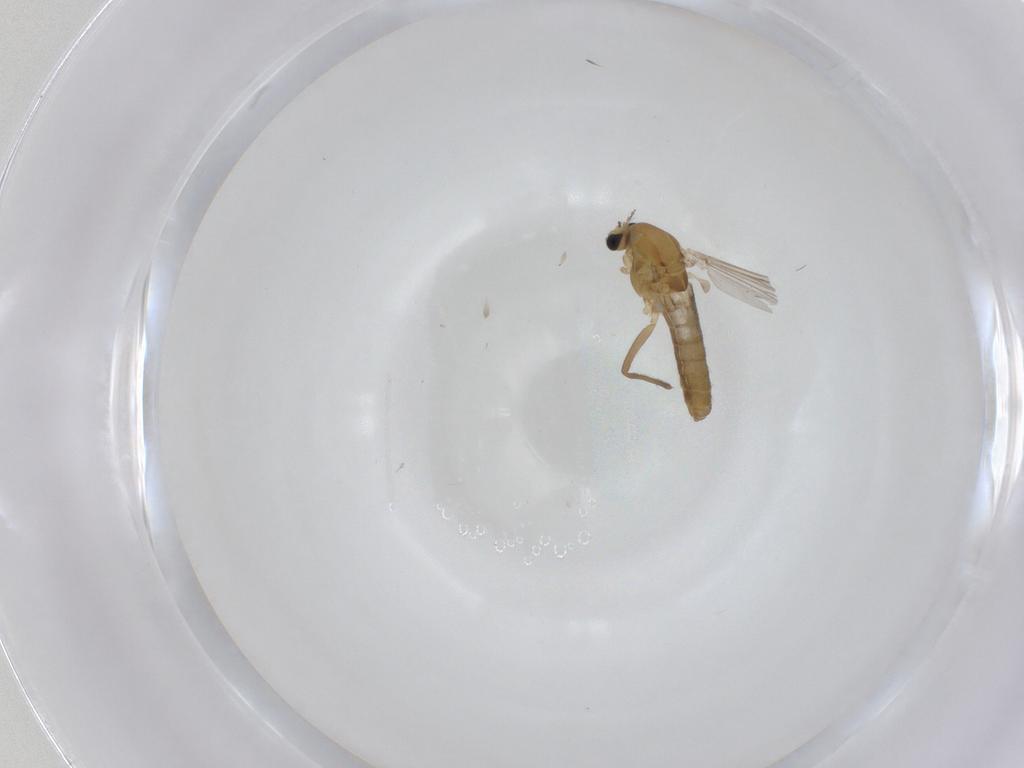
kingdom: Animalia
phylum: Arthropoda
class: Insecta
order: Diptera
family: Chironomidae
